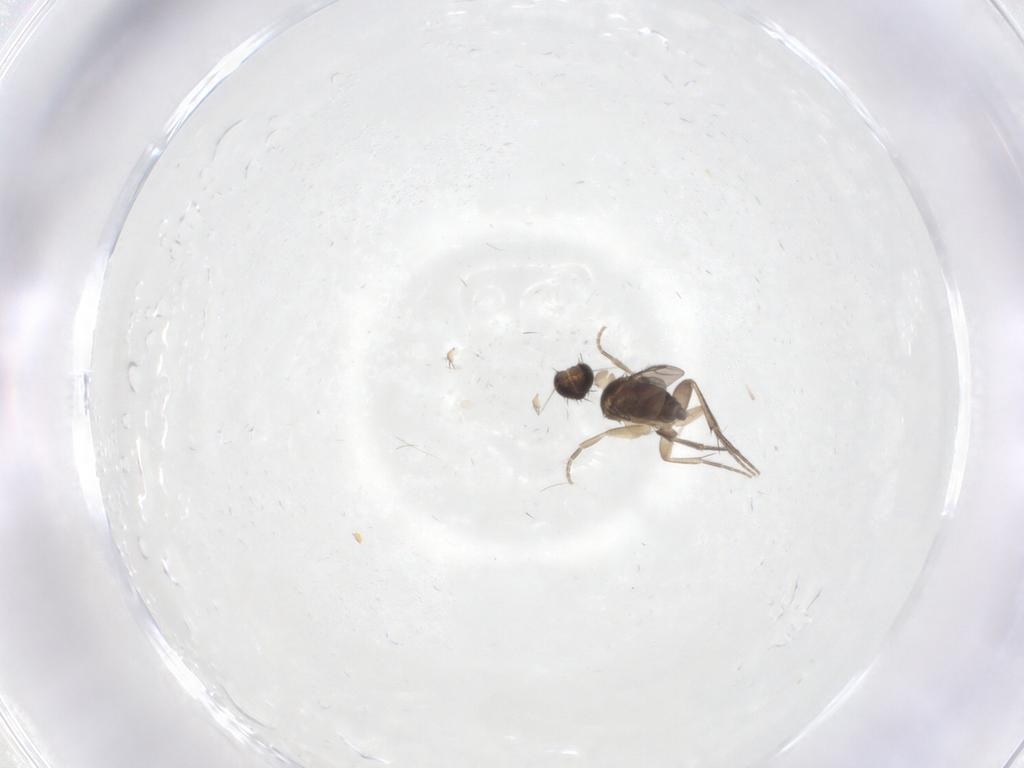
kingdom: Animalia
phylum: Arthropoda
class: Insecta
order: Diptera
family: Phoridae
